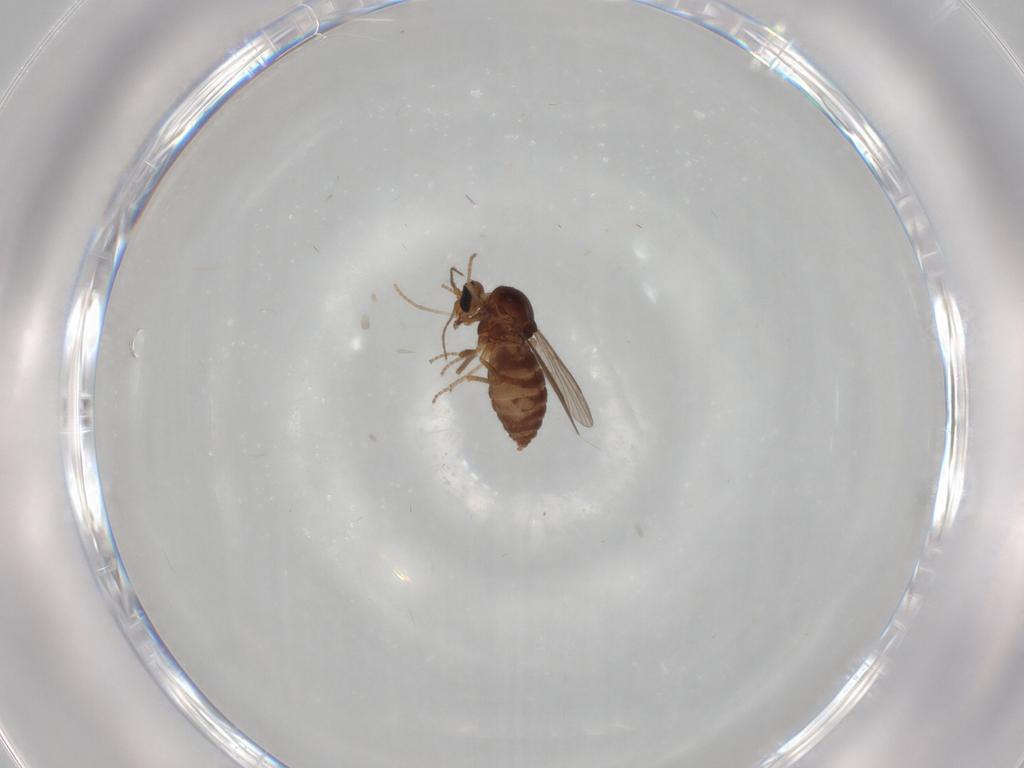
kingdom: Animalia
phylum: Arthropoda
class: Insecta
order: Diptera
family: Ceratopogonidae
